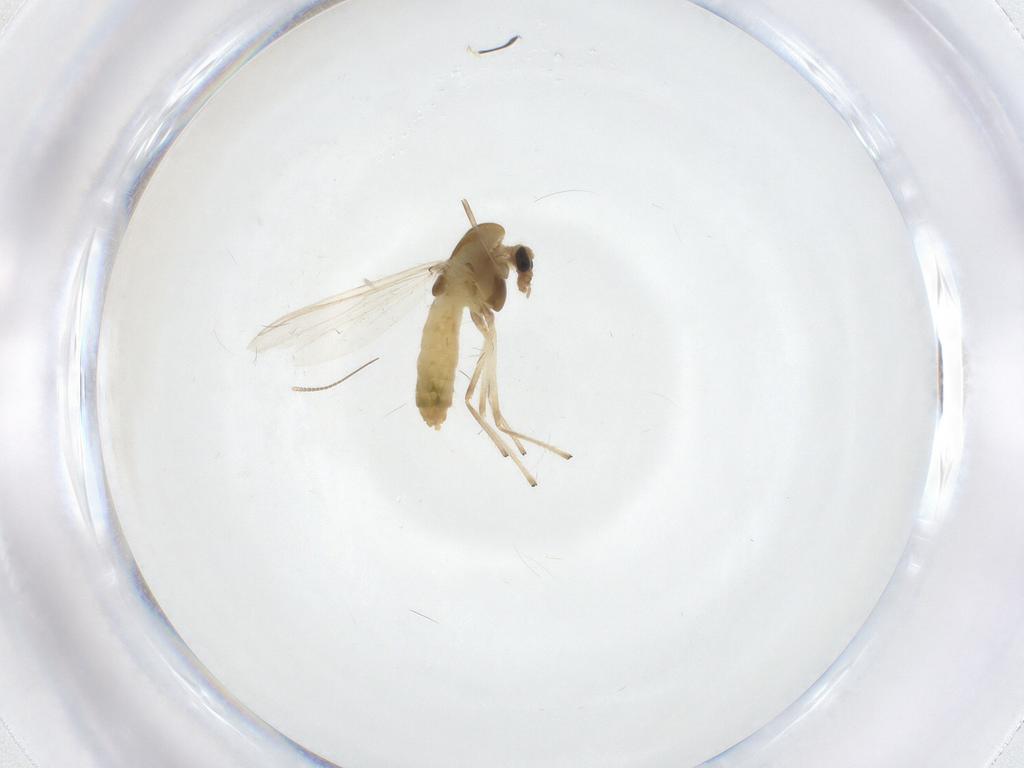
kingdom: Animalia
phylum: Arthropoda
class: Insecta
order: Diptera
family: Chironomidae
